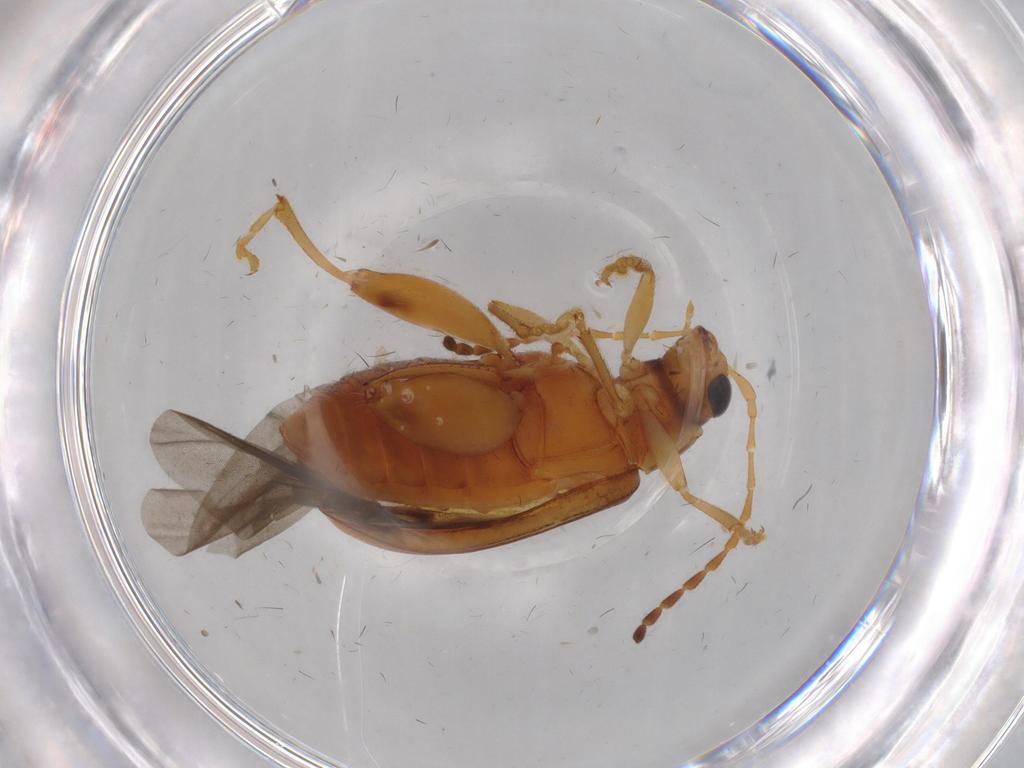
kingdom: Animalia
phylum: Arthropoda
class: Insecta
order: Coleoptera
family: Chrysomelidae
